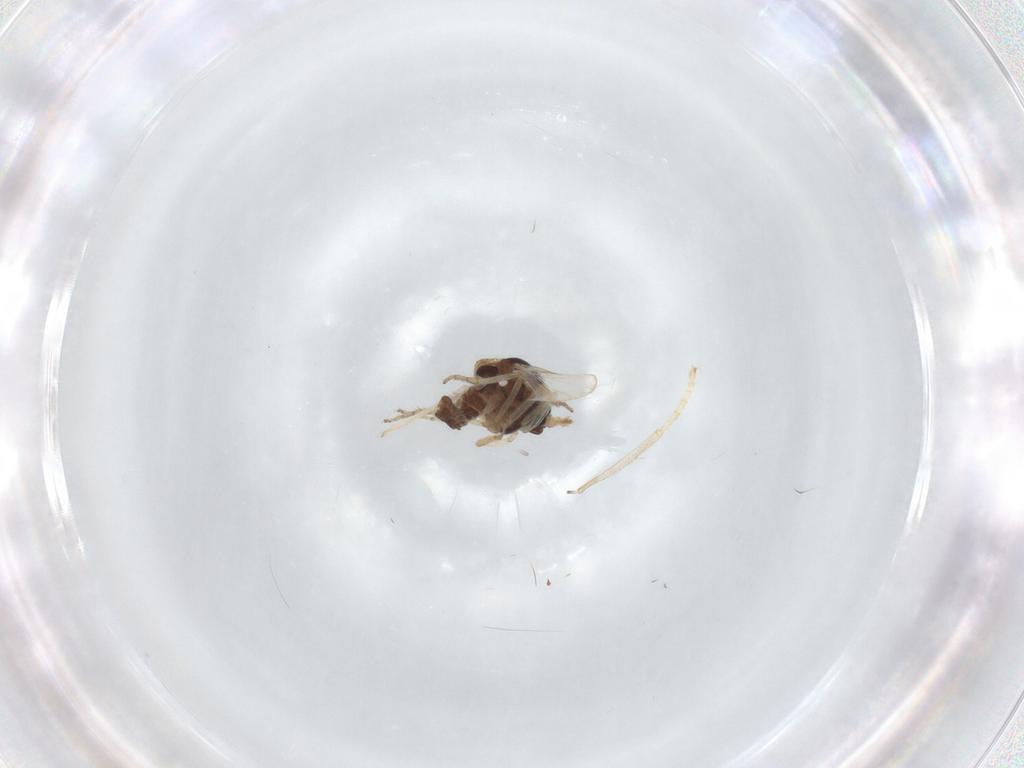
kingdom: Animalia
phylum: Arthropoda
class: Insecta
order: Diptera
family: Ceratopogonidae
